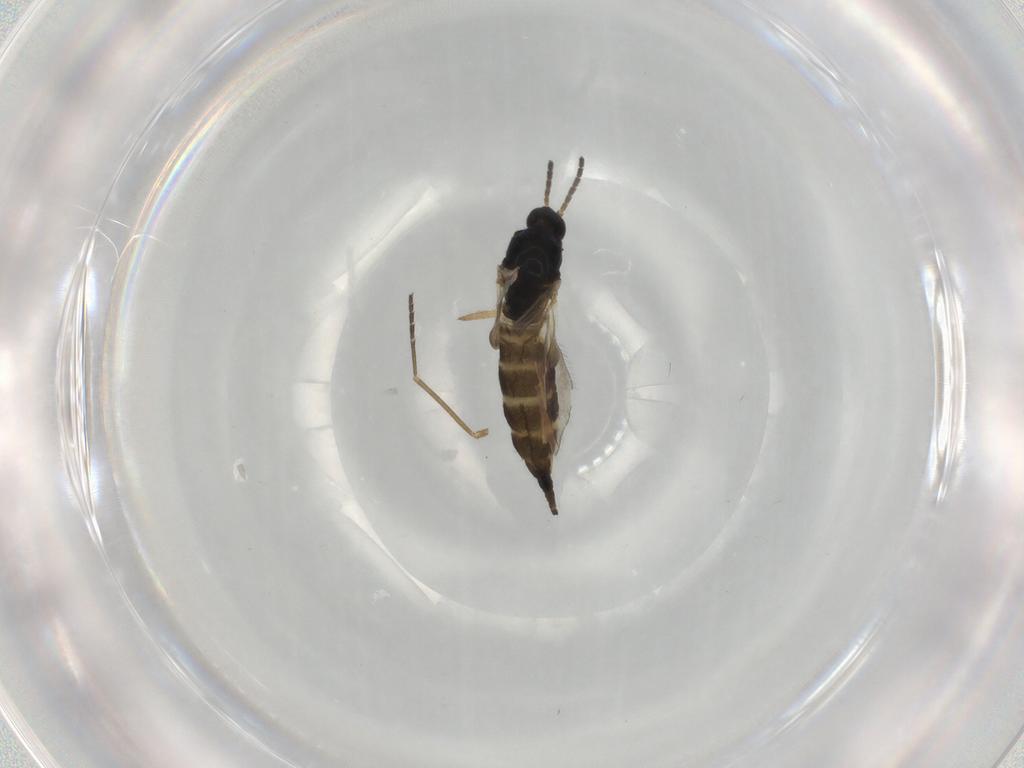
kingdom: Animalia
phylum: Arthropoda
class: Insecta
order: Diptera
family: Sciaridae
